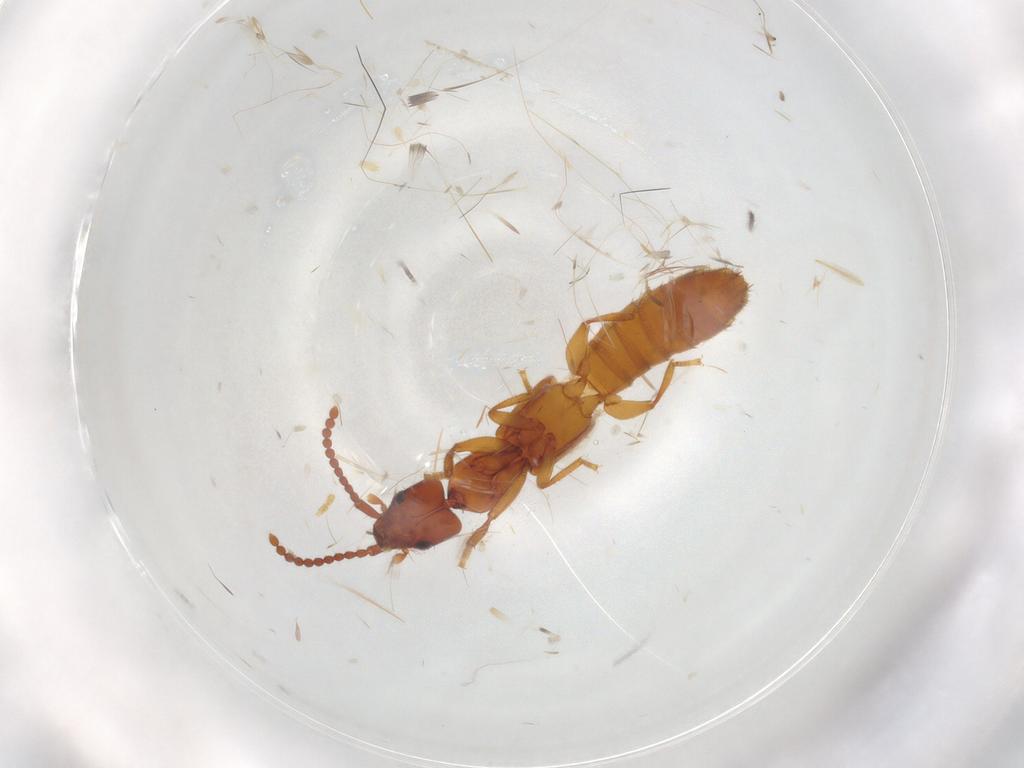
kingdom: Animalia
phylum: Arthropoda
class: Insecta
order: Coleoptera
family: Staphylinidae
